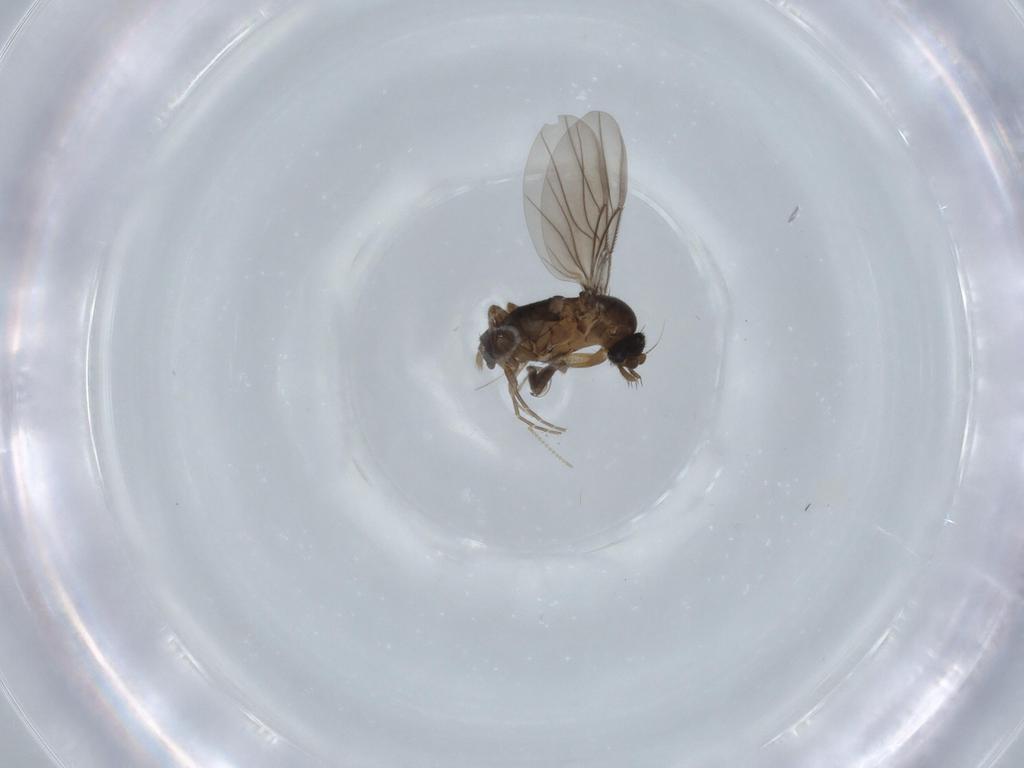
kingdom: Animalia
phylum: Arthropoda
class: Insecta
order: Diptera
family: Cecidomyiidae
